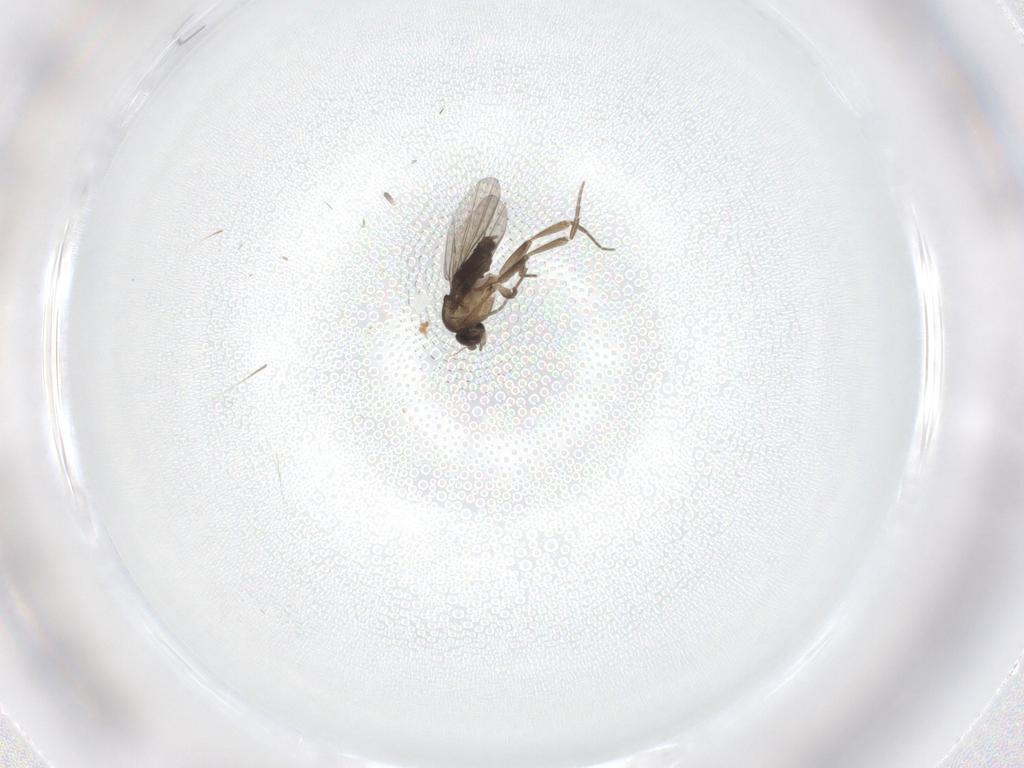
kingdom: Animalia
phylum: Arthropoda
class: Insecta
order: Diptera
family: Phoridae
